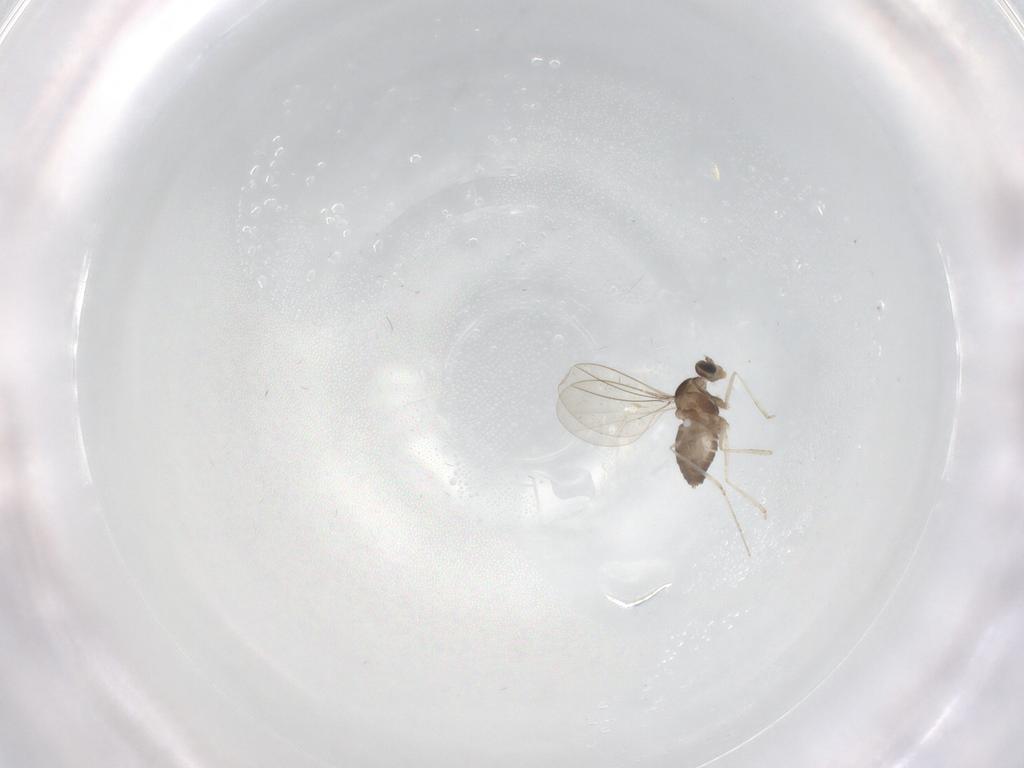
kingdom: Animalia
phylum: Arthropoda
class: Insecta
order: Diptera
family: Cecidomyiidae
